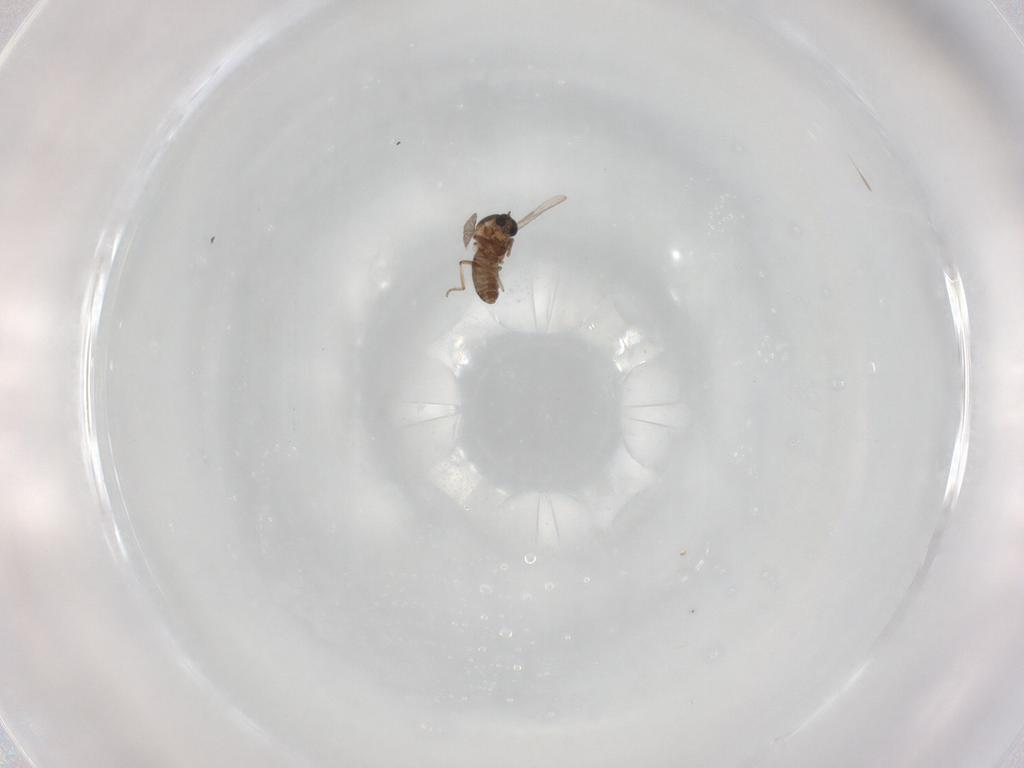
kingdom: Animalia
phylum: Arthropoda
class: Insecta
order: Diptera
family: Ceratopogonidae
